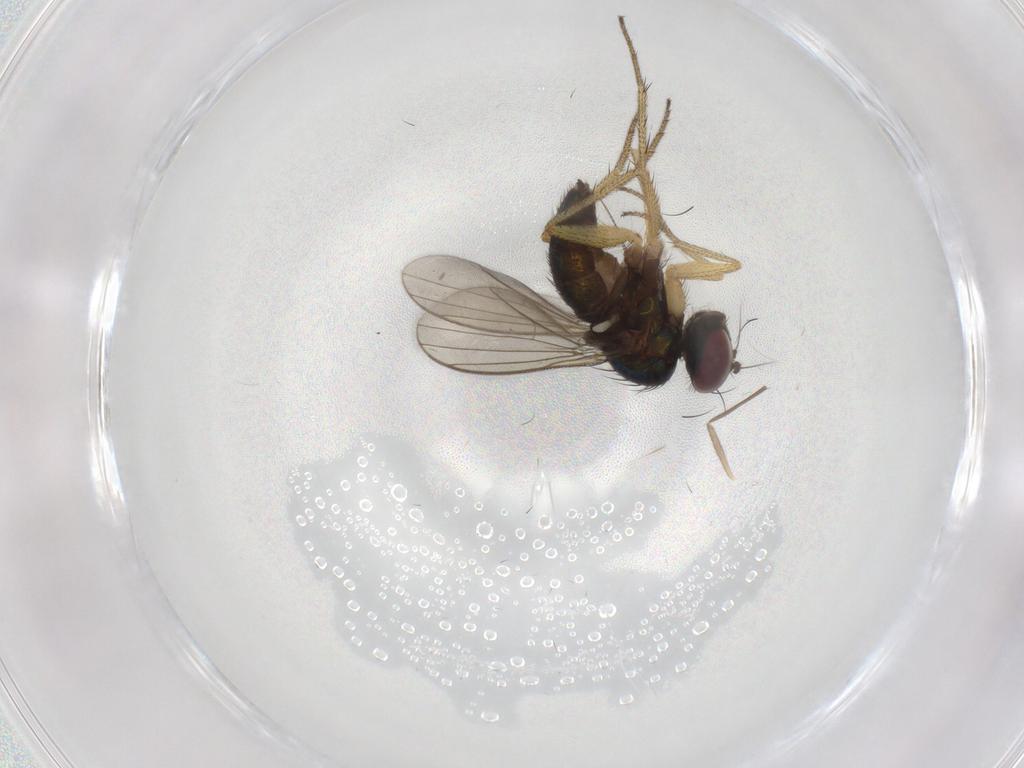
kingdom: Animalia
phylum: Arthropoda
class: Insecta
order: Diptera
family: Chironomidae
